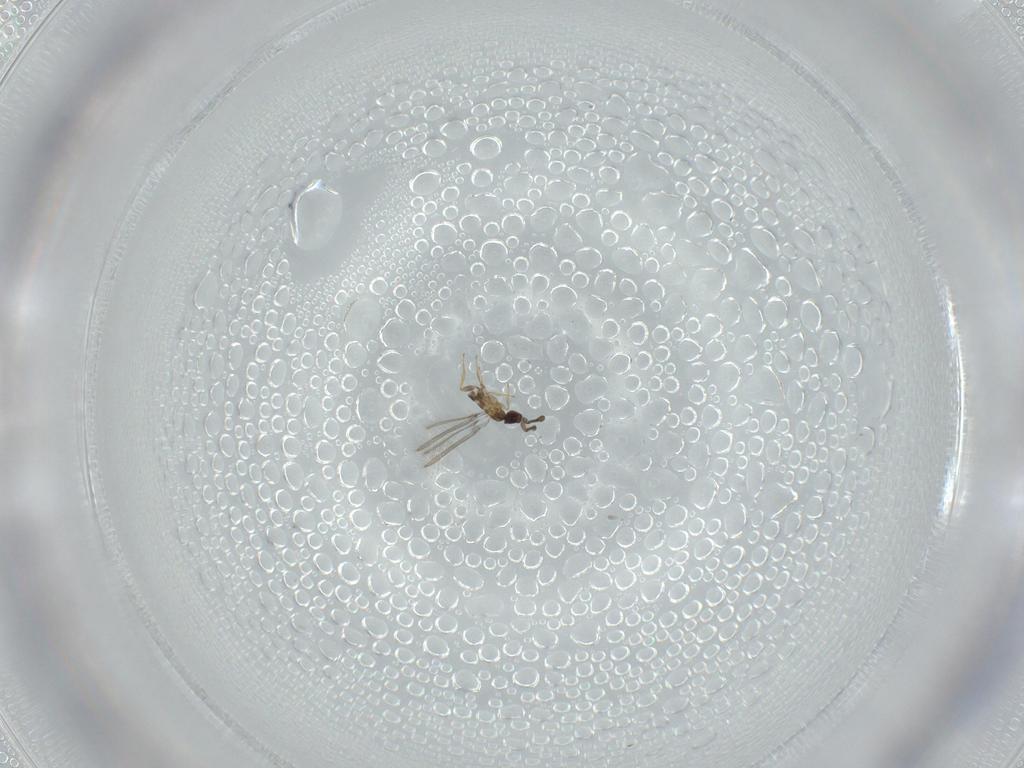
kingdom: Animalia
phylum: Arthropoda
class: Insecta
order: Hymenoptera
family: Mymaridae
